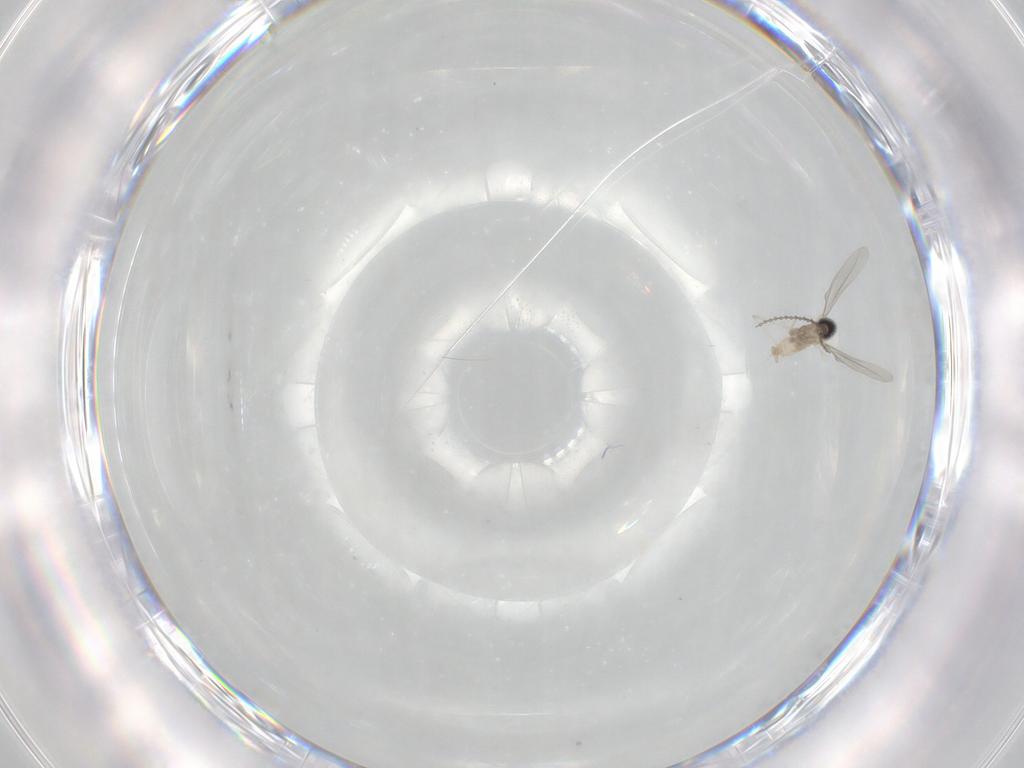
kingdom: Animalia
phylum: Arthropoda
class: Insecta
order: Diptera
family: Cecidomyiidae
